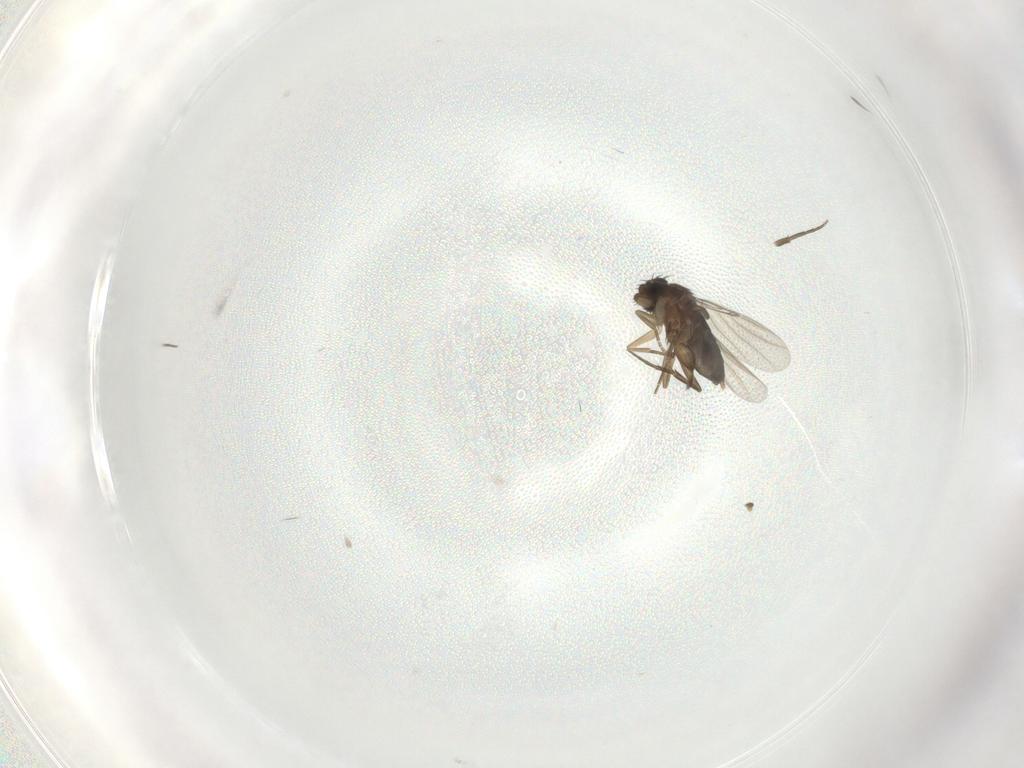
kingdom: Animalia
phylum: Arthropoda
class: Insecta
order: Diptera
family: Phoridae
